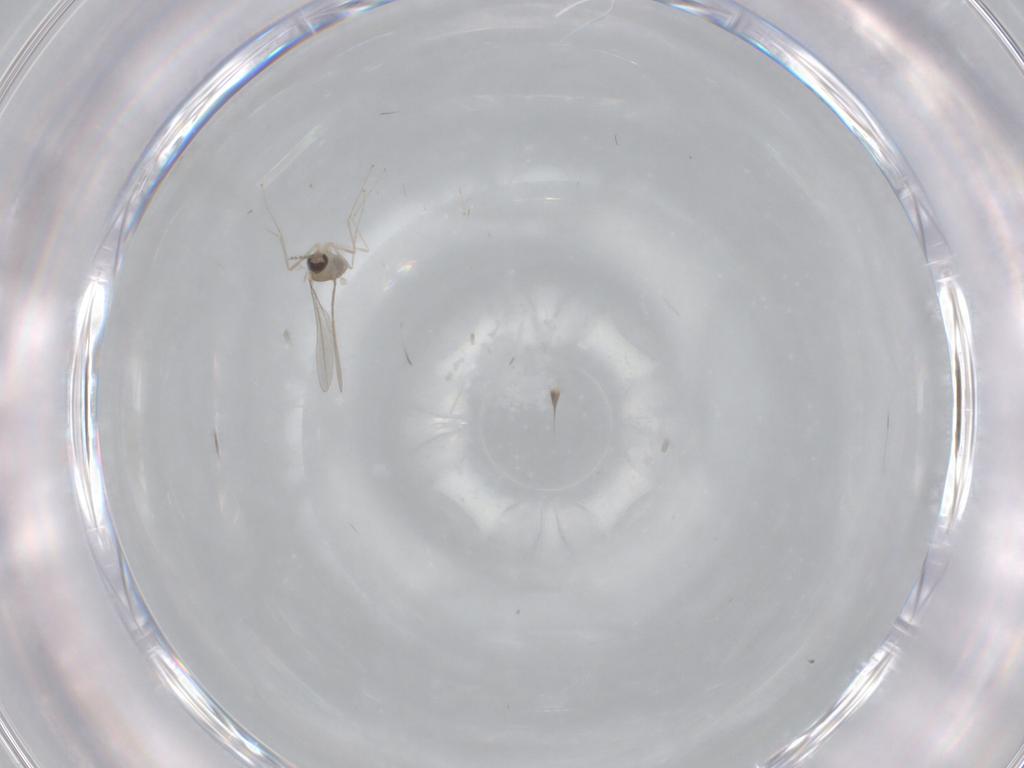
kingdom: Animalia
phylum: Arthropoda
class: Insecta
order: Diptera
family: Cecidomyiidae
